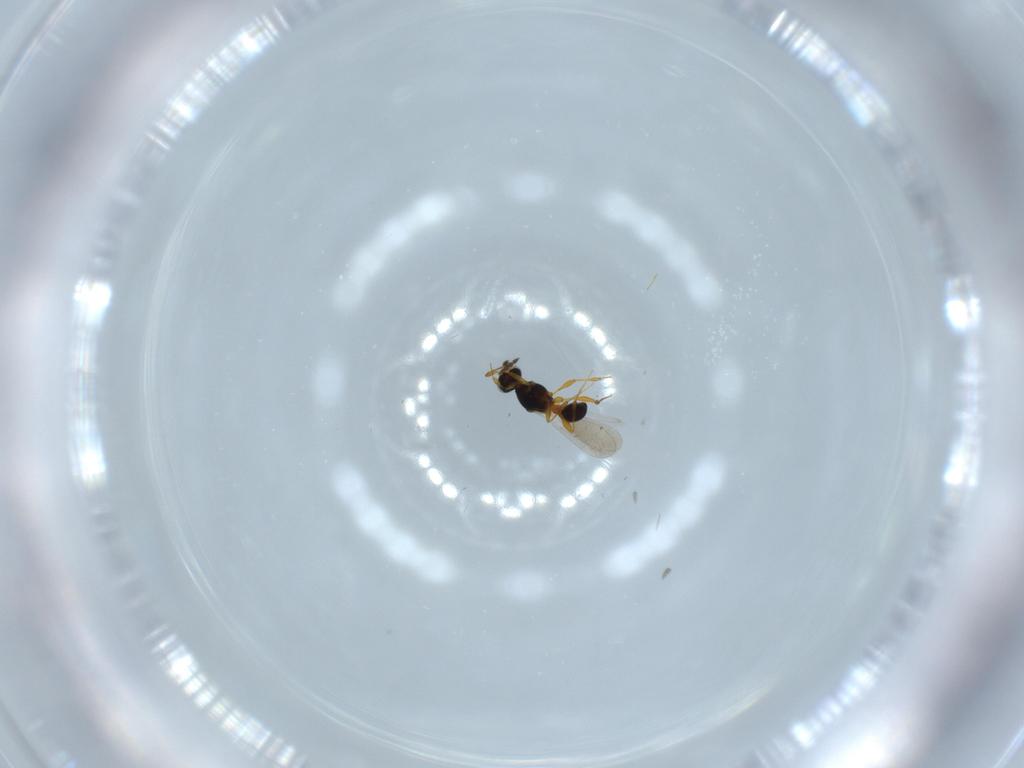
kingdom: Animalia
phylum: Arthropoda
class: Insecta
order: Hymenoptera
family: Platygastridae
